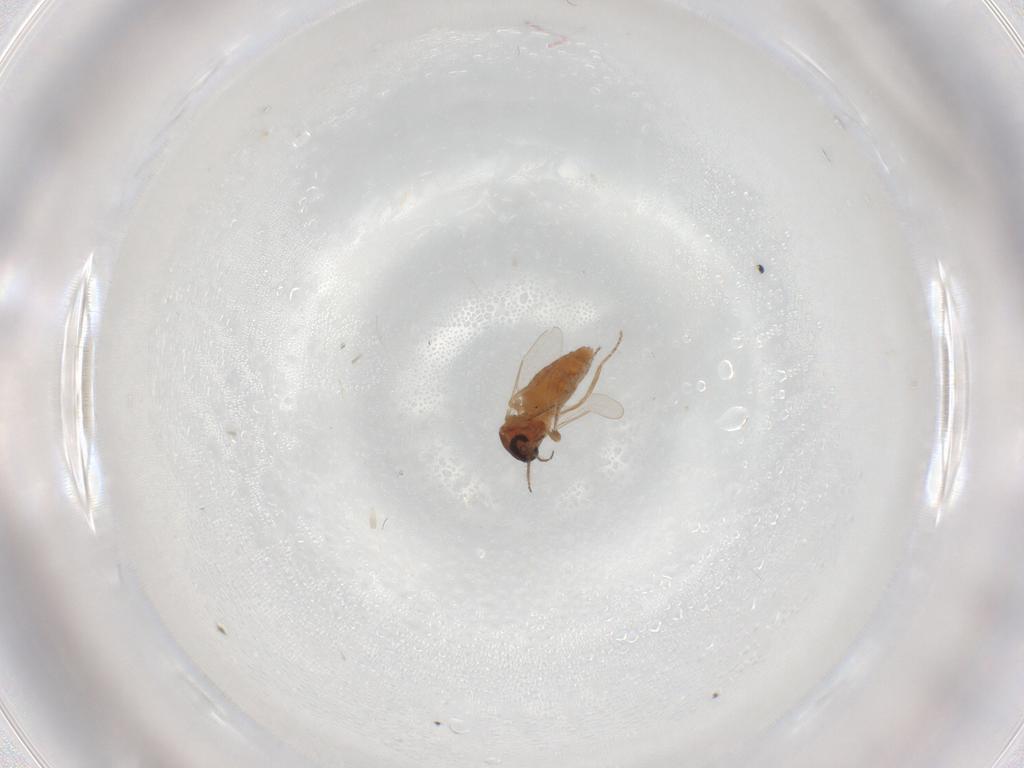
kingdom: Animalia
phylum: Arthropoda
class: Insecta
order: Diptera
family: Ceratopogonidae
